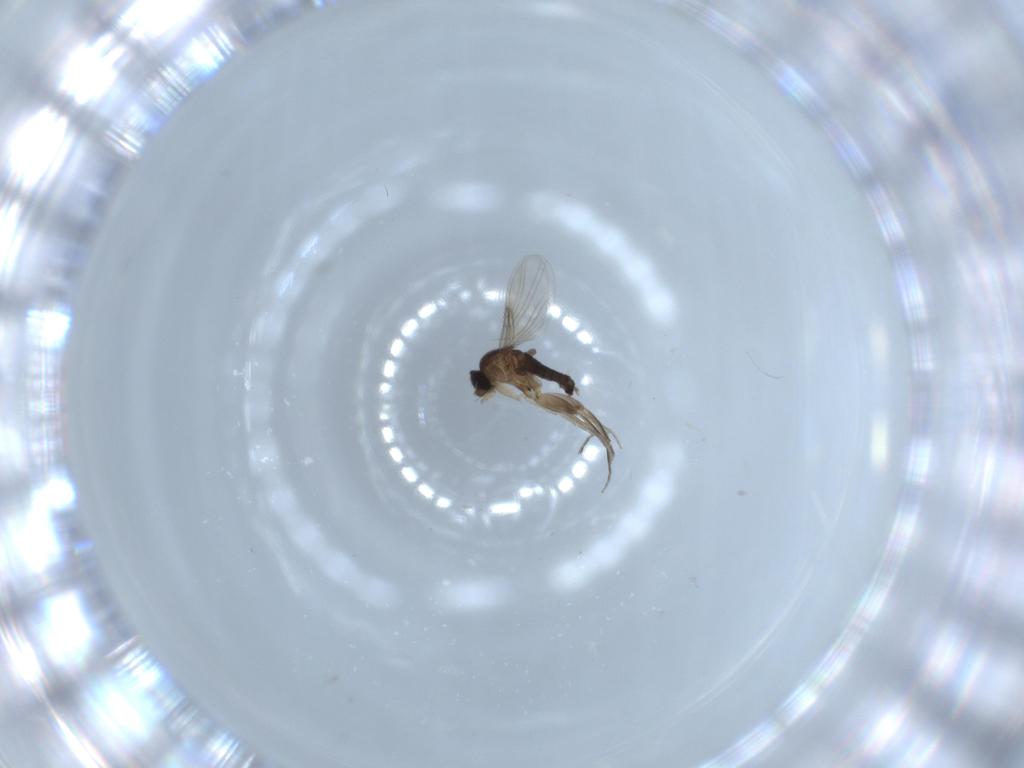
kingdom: Animalia
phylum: Arthropoda
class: Insecta
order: Diptera
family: Phoridae
